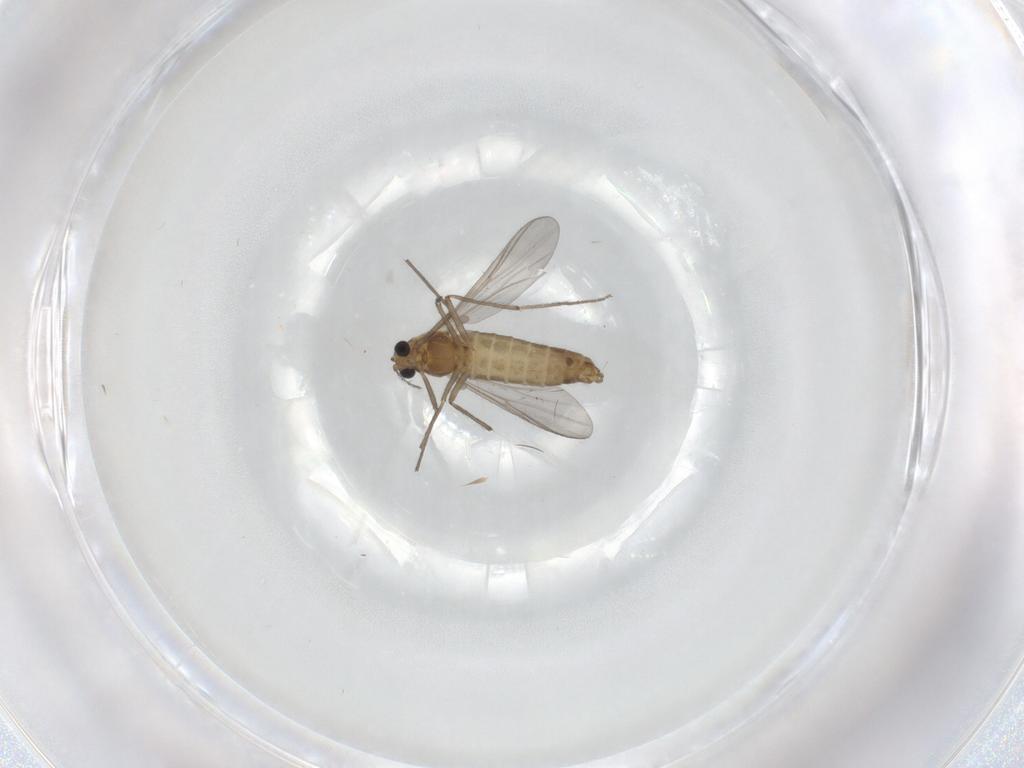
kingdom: Animalia
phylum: Arthropoda
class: Insecta
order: Diptera
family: Chironomidae
